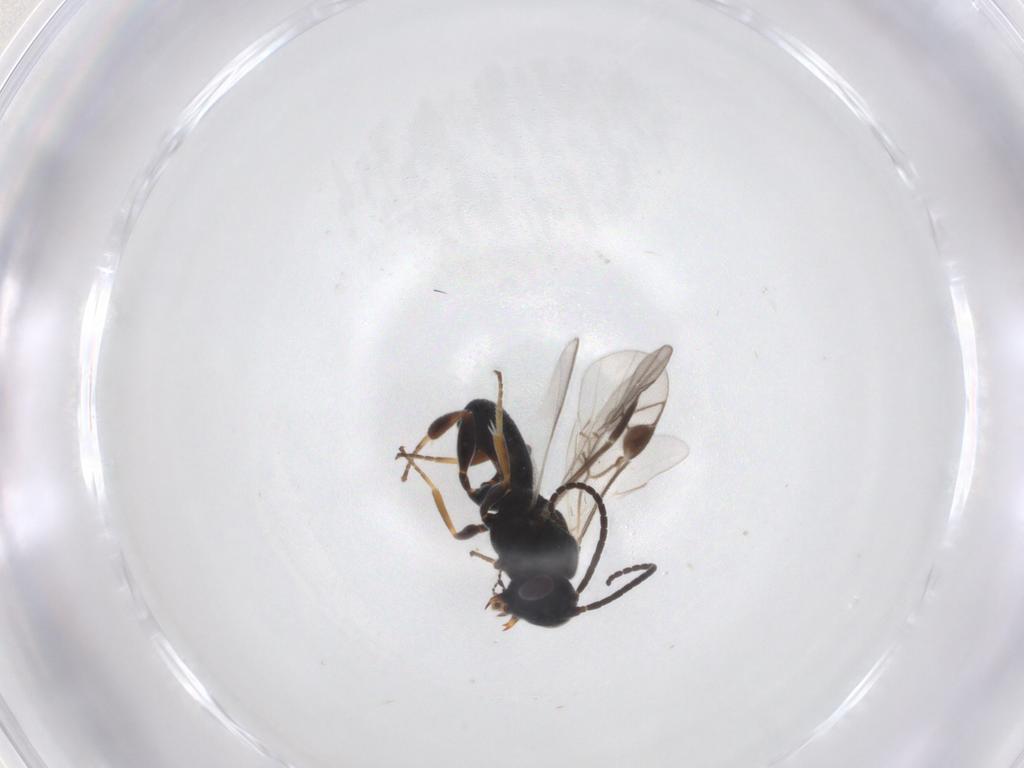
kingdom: Animalia
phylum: Arthropoda
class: Insecta
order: Hymenoptera
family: Braconidae
